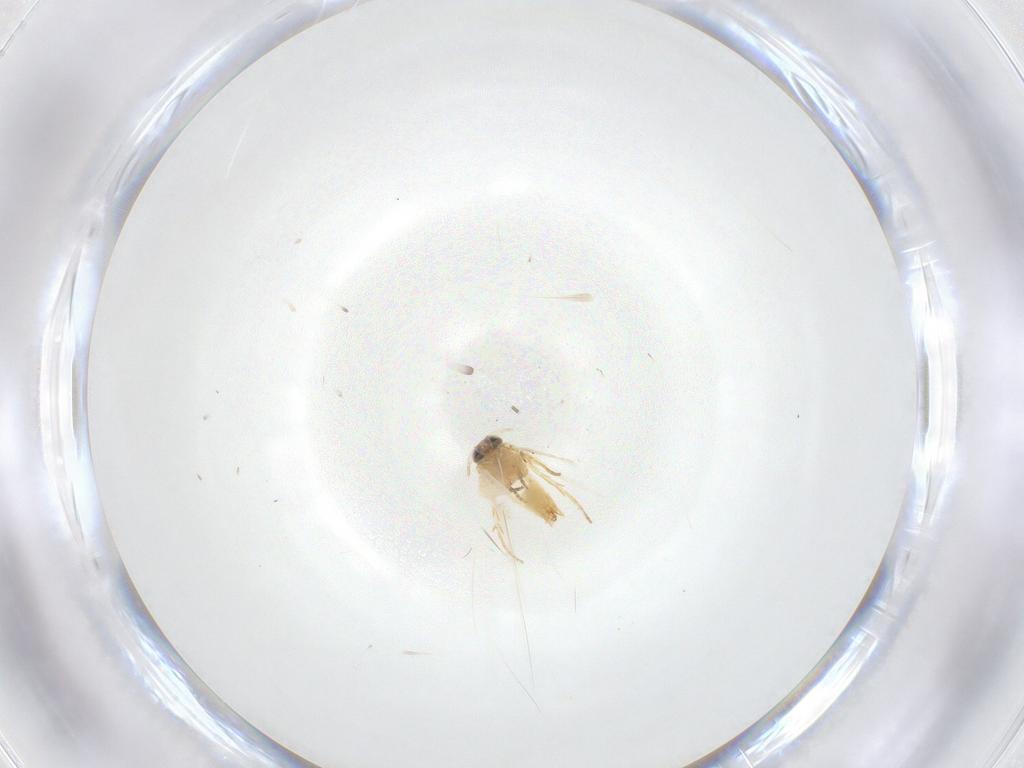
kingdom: Animalia
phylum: Arthropoda
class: Insecta
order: Lepidoptera
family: Crambidae
